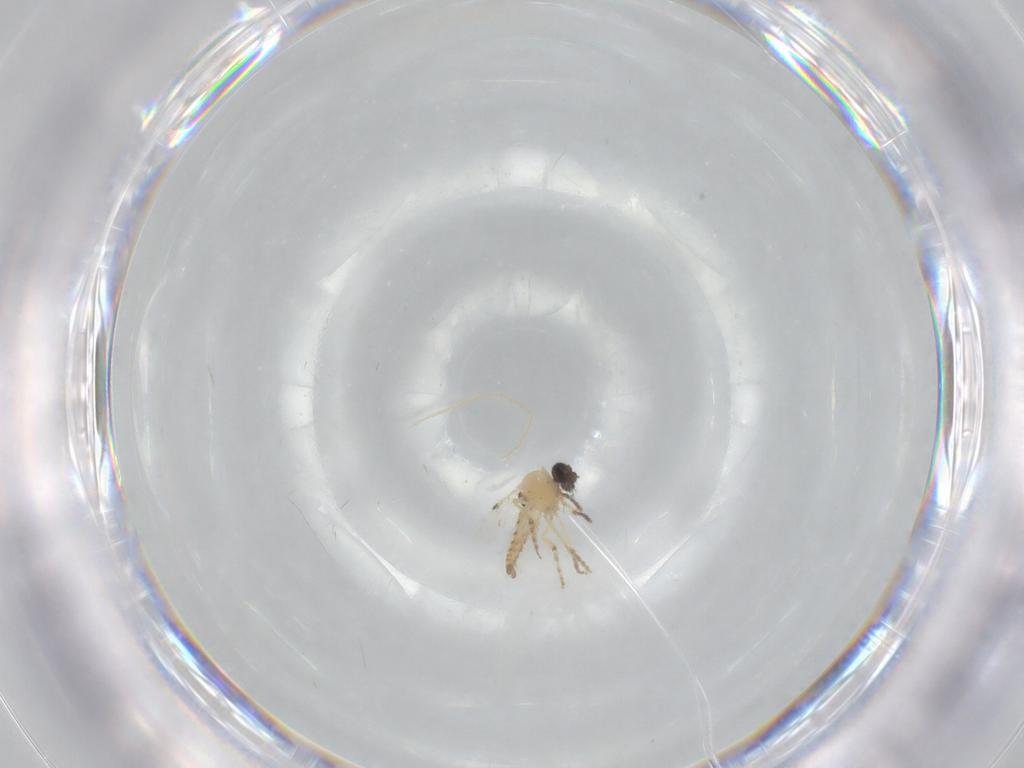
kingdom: Animalia
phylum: Arthropoda
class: Insecta
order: Diptera
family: Ceratopogonidae
